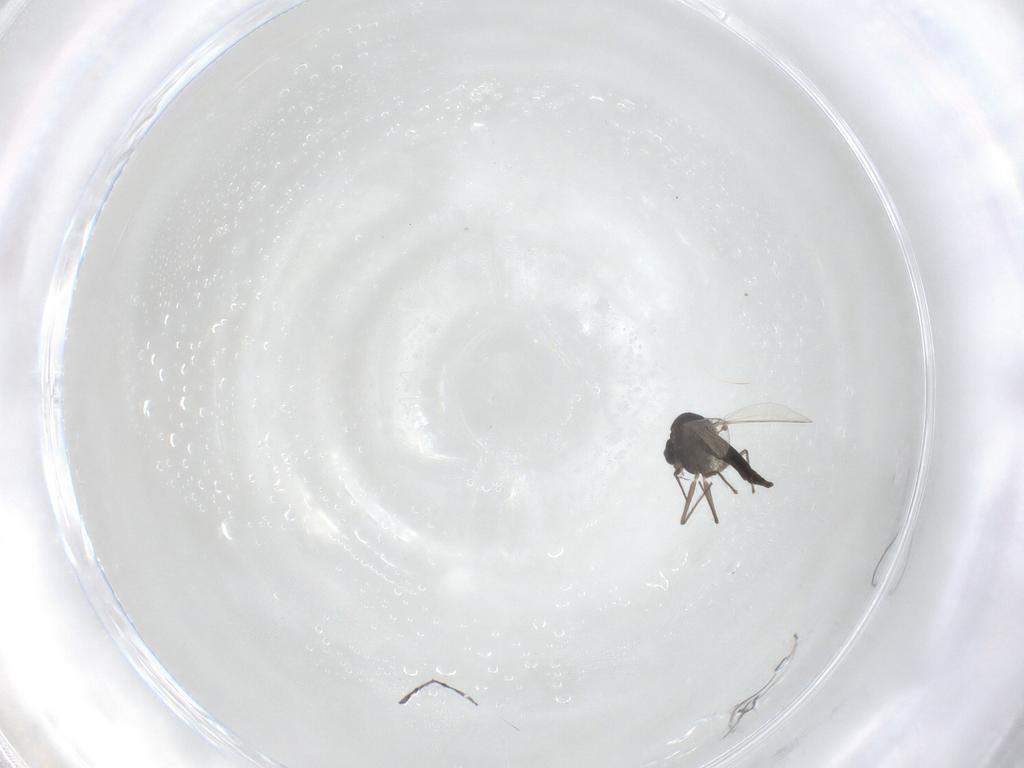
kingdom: Animalia
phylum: Arthropoda
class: Insecta
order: Diptera
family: Chironomidae
